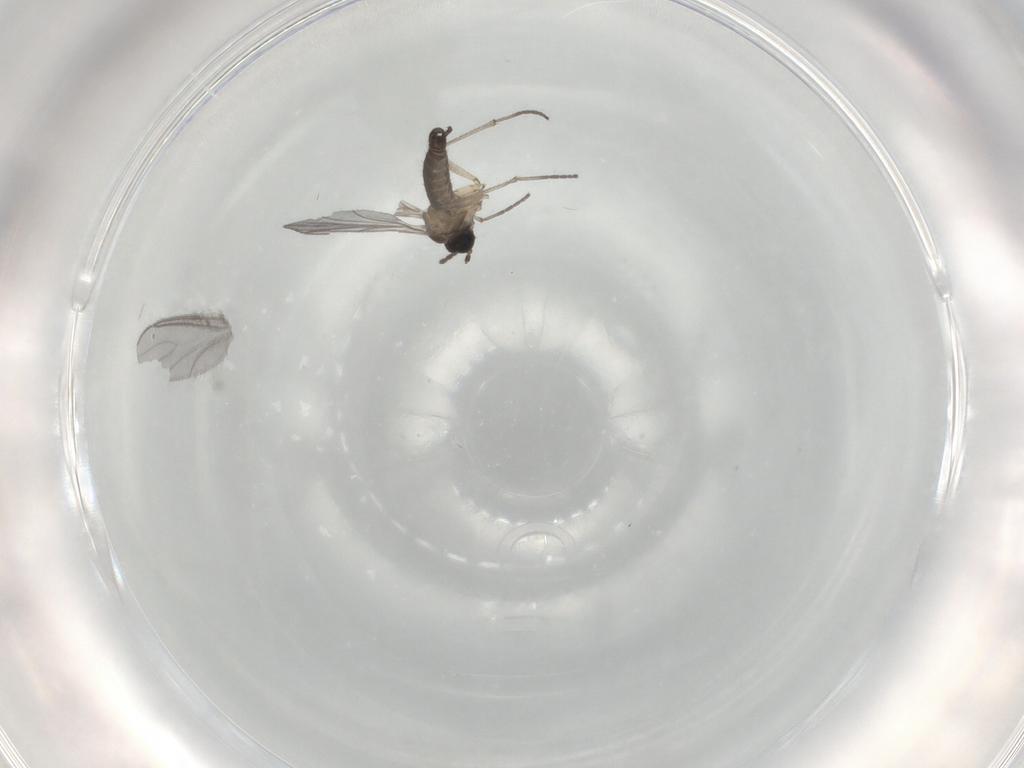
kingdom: Animalia
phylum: Arthropoda
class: Insecta
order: Diptera
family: Sciaridae
